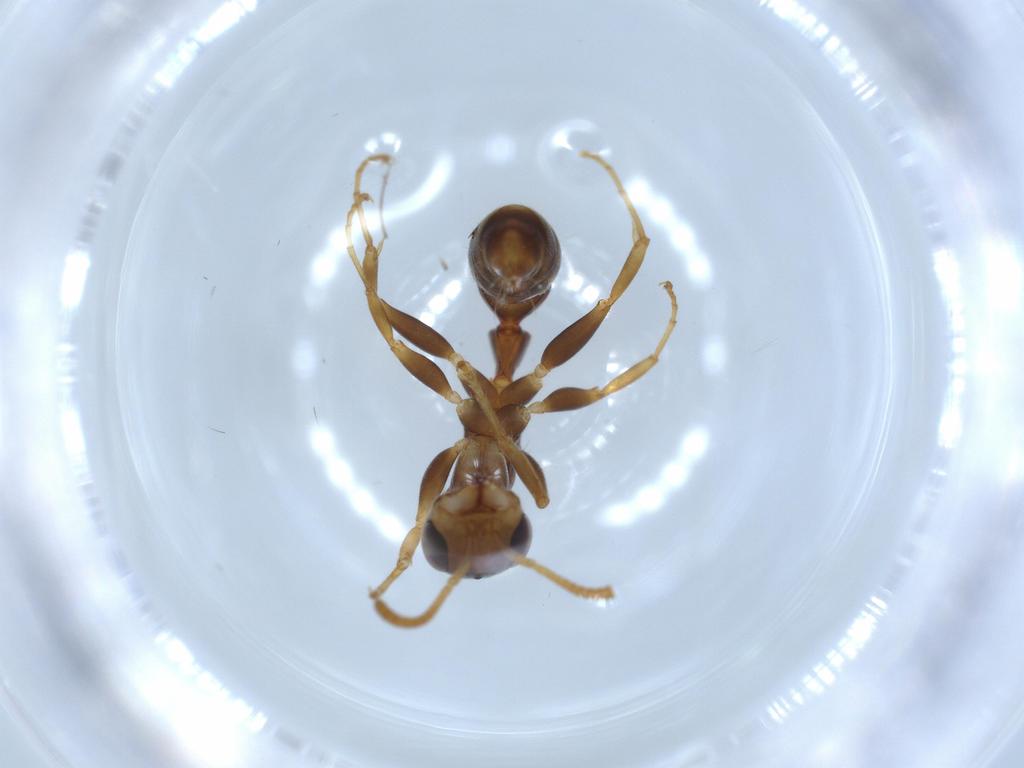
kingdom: Animalia
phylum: Arthropoda
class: Insecta
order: Hymenoptera
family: Formicidae
